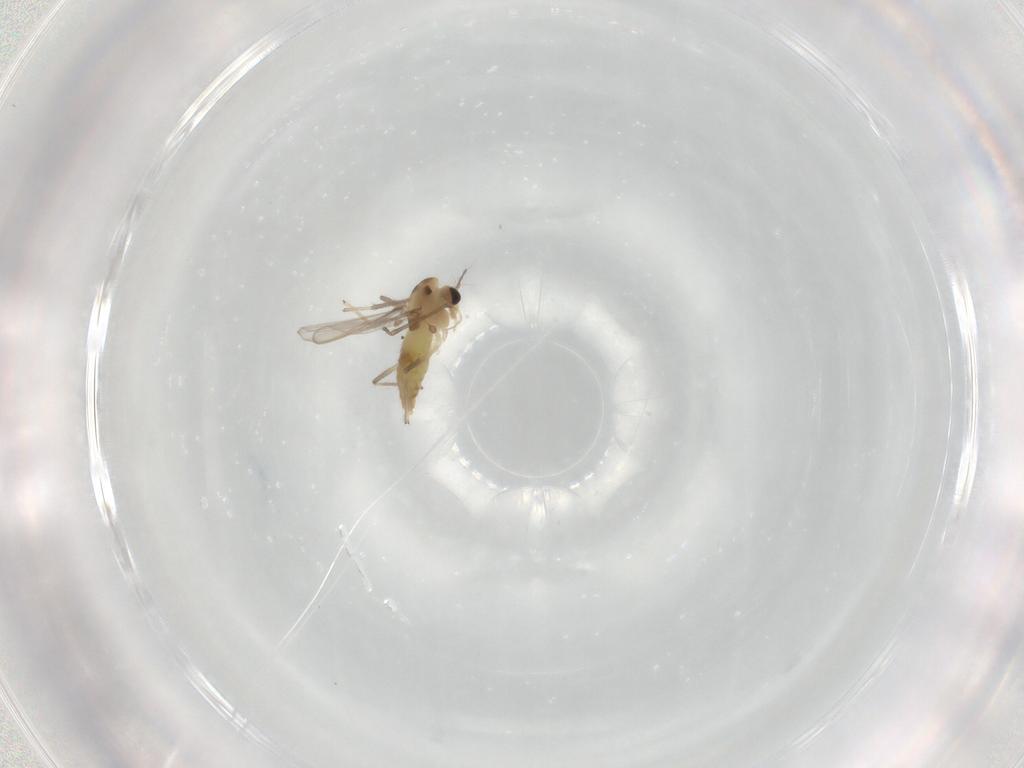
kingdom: Animalia
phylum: Arthropoda
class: Insecta
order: Diptera
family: Chironomidae
